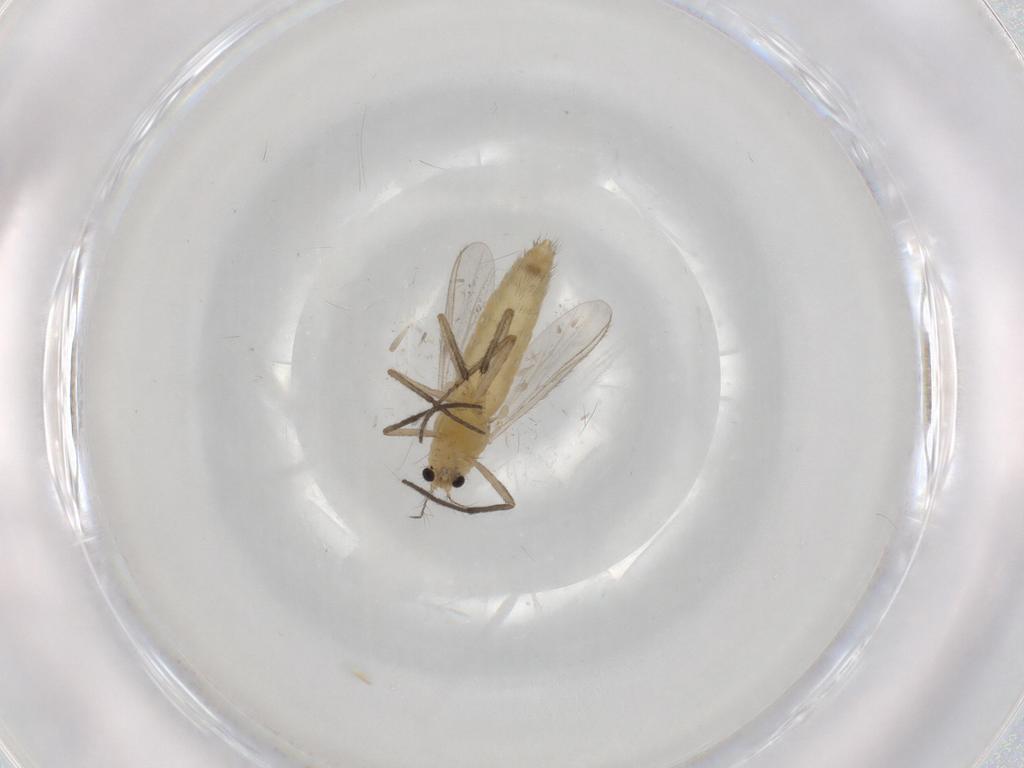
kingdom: Animalia
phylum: Arthropoda
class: Insecta
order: Diptera
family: Chironomidae
